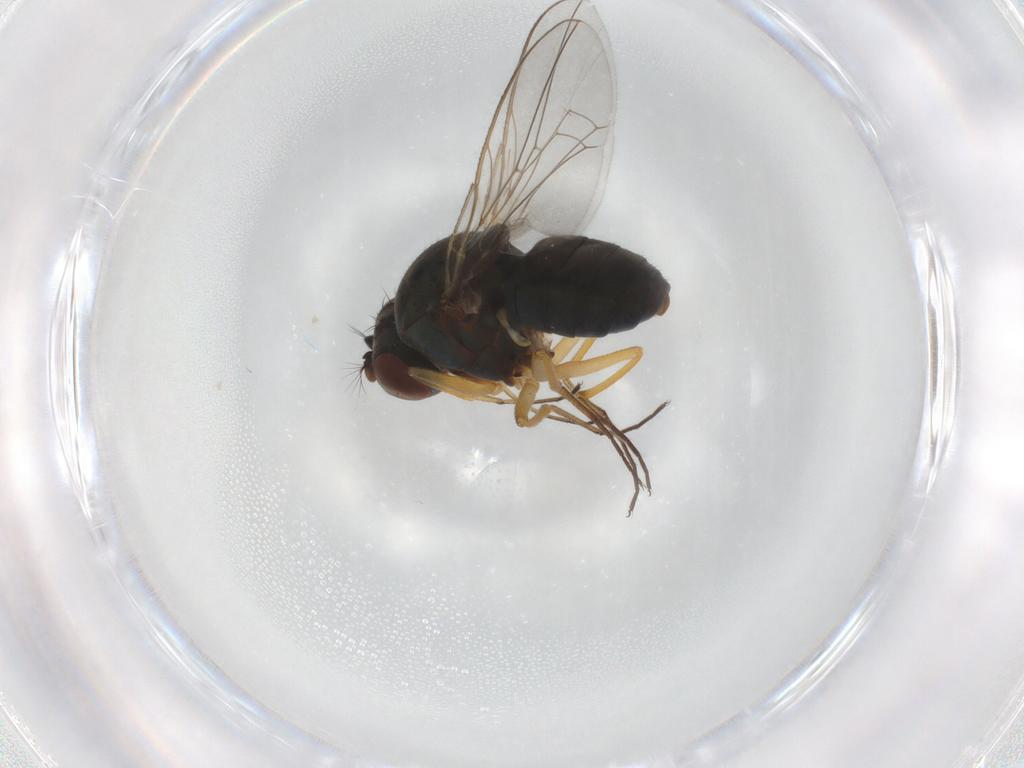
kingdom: Animalia
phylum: Arthropoda
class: Insecta
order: Diptera
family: Ephydridae
